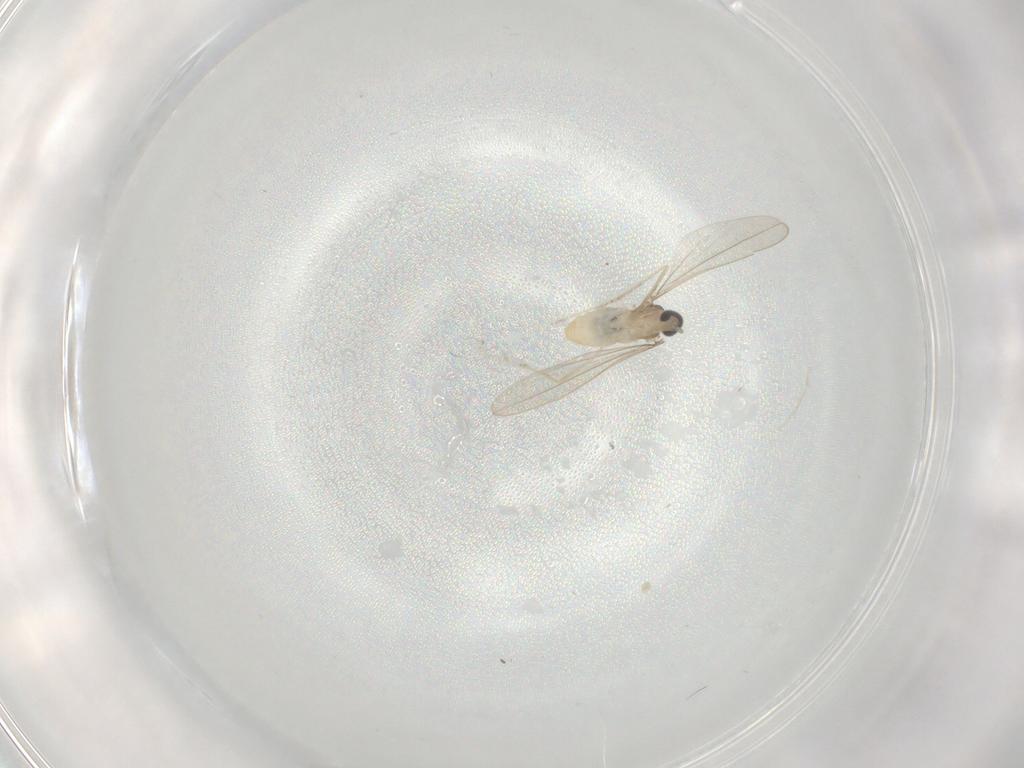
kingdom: Animalia
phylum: Arthropoda
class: Insecta
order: Diptera
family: Cecidomyiidae
